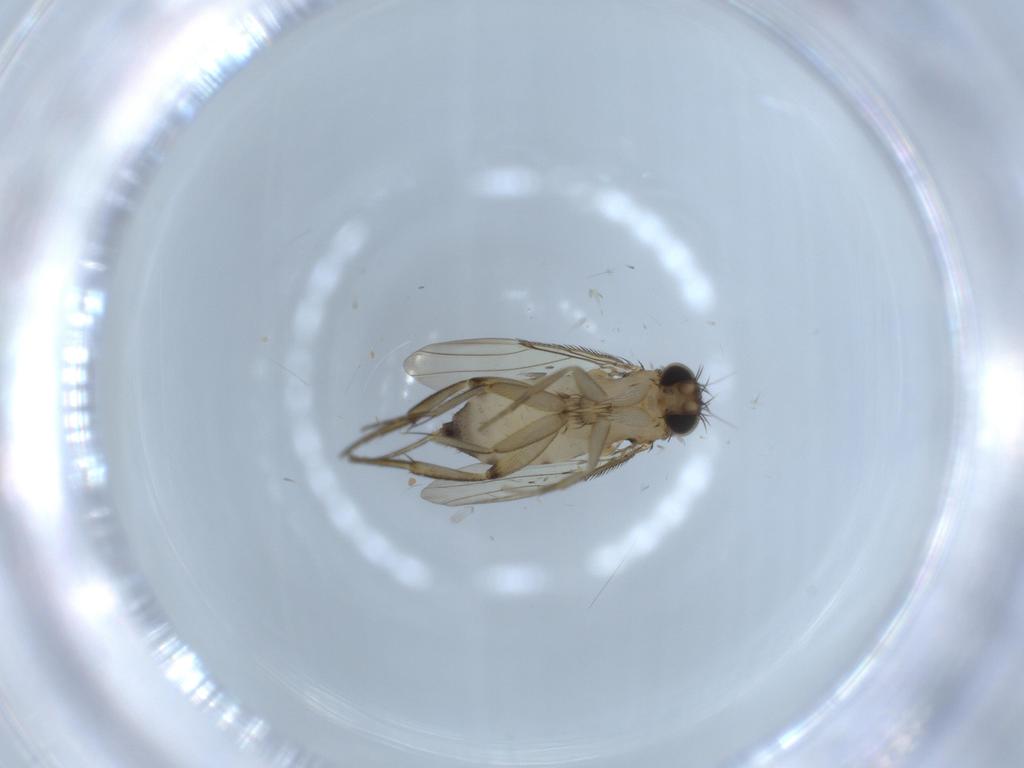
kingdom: Animalia
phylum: Arthropoda
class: Insecta
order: Diptera
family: Phoridae
